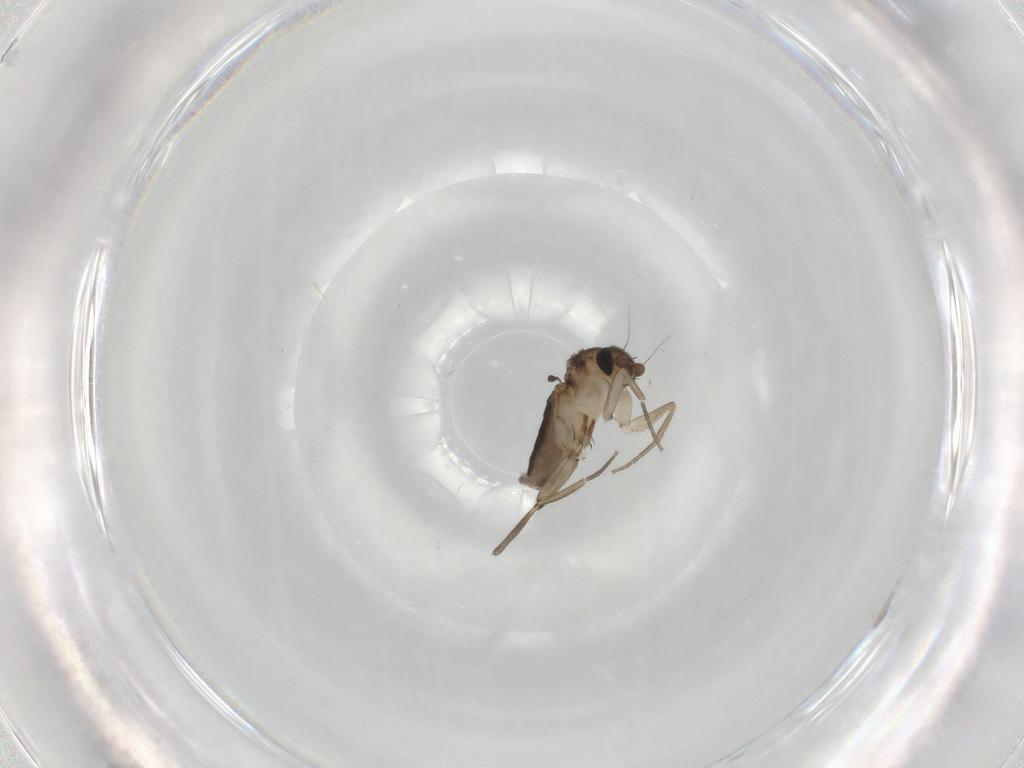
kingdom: Animalia
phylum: Arthropoda
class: Insecta
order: Diptera
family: Phoridae
